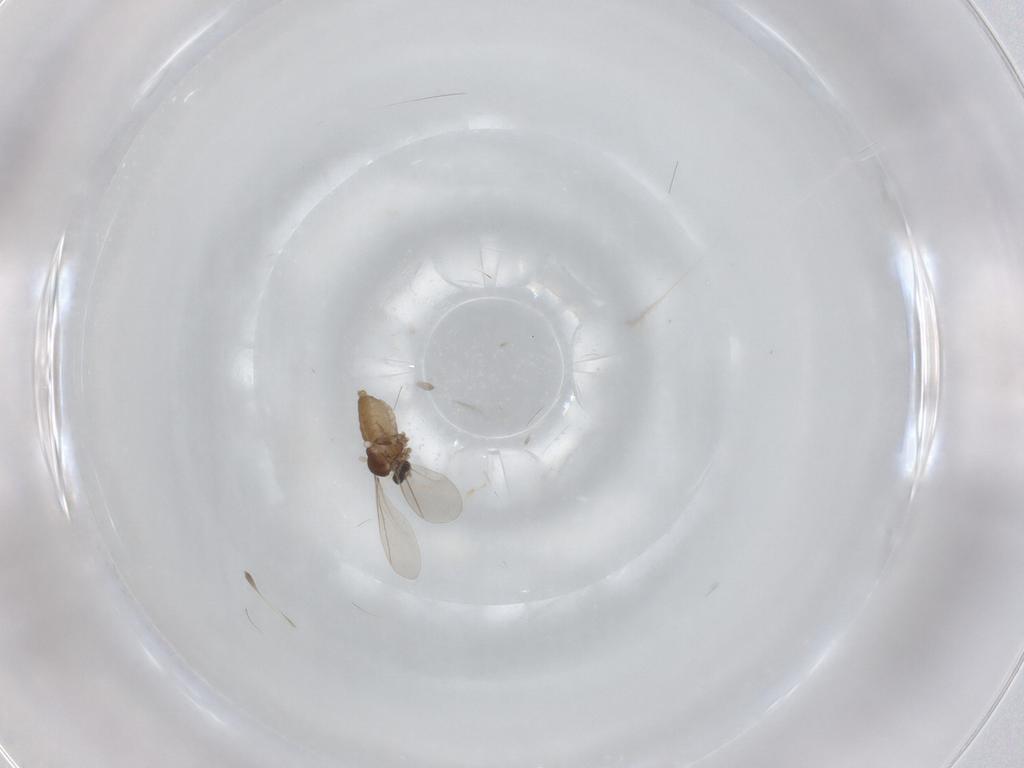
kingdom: Animalia
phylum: Arthropoda
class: Insecta
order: Diptera
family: Cecidomyiidae
